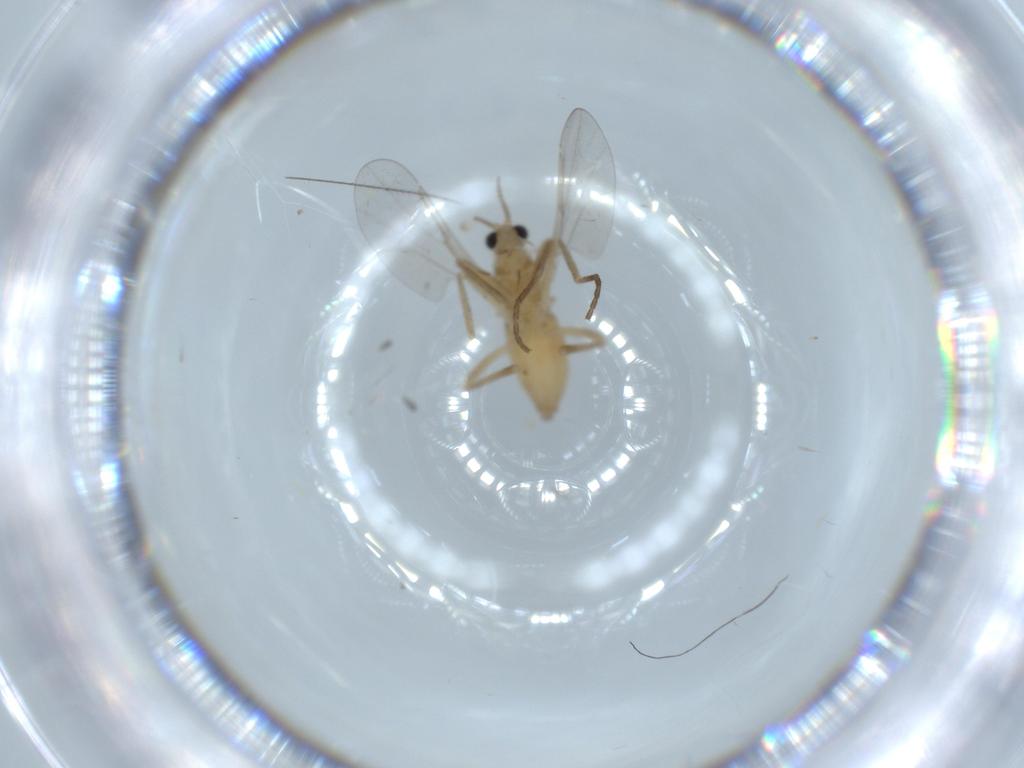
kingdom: Animalia
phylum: Arthropoda
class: Insecta
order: Diptera
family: Cecidomyiidae
